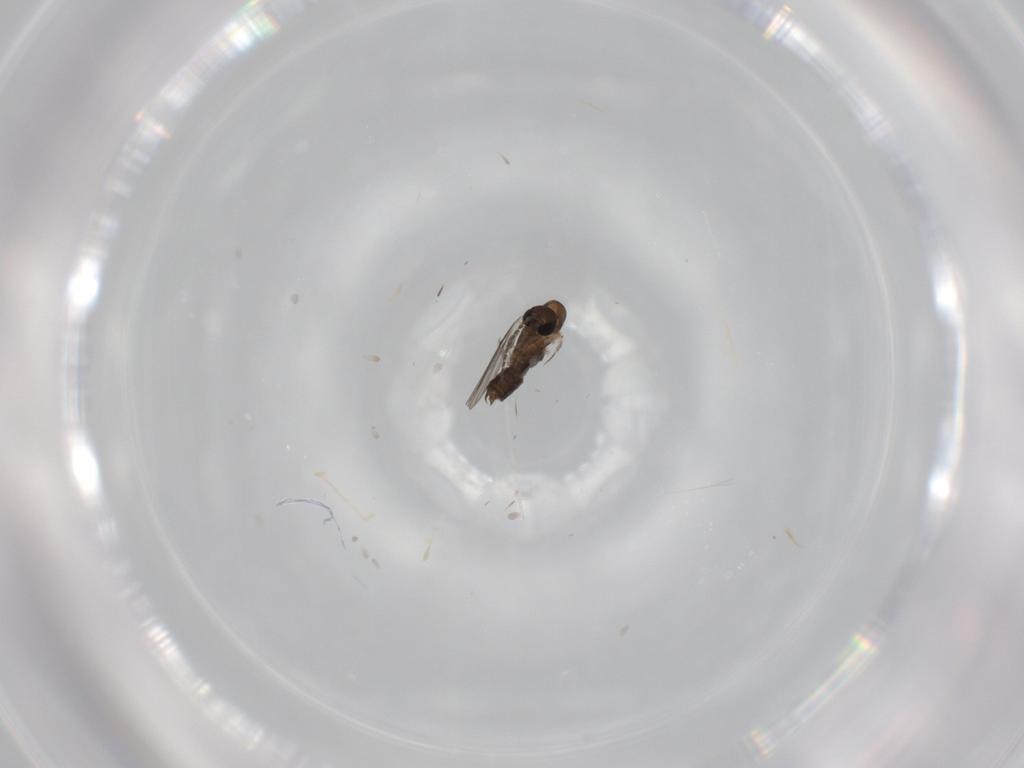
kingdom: Animalia
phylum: Arthropoda
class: Insecta
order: Diptera
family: Cecidomyiidae
